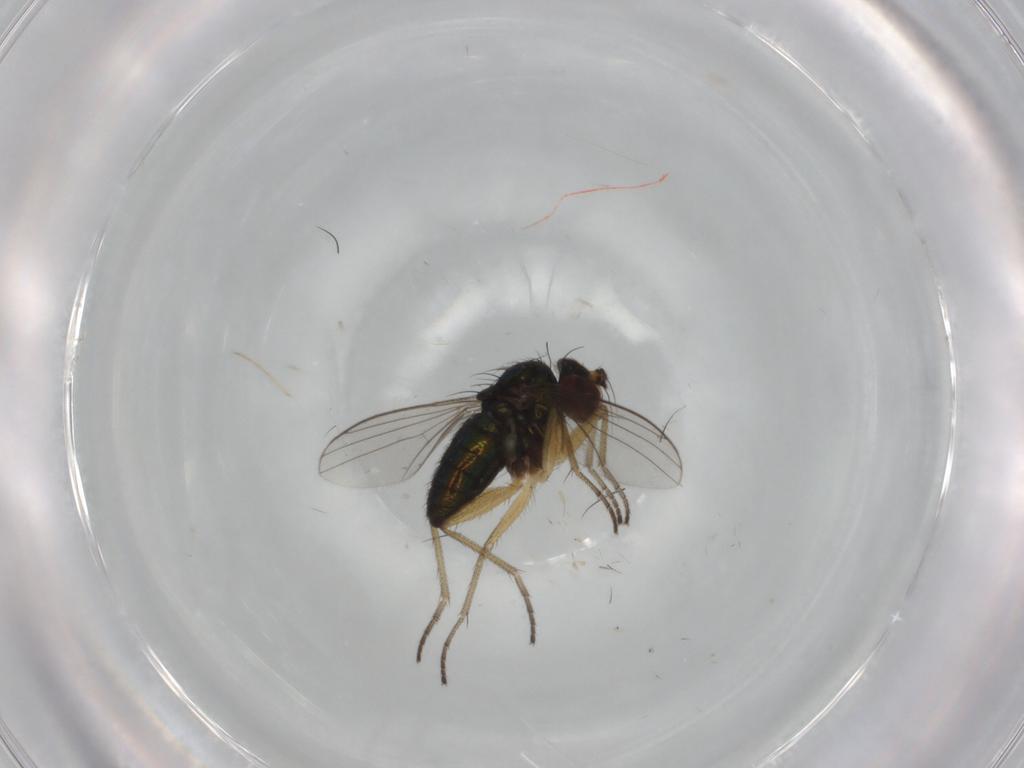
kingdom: Animalia
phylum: Arthropoda
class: Insecta
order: Diptera
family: Dolichopodidae
